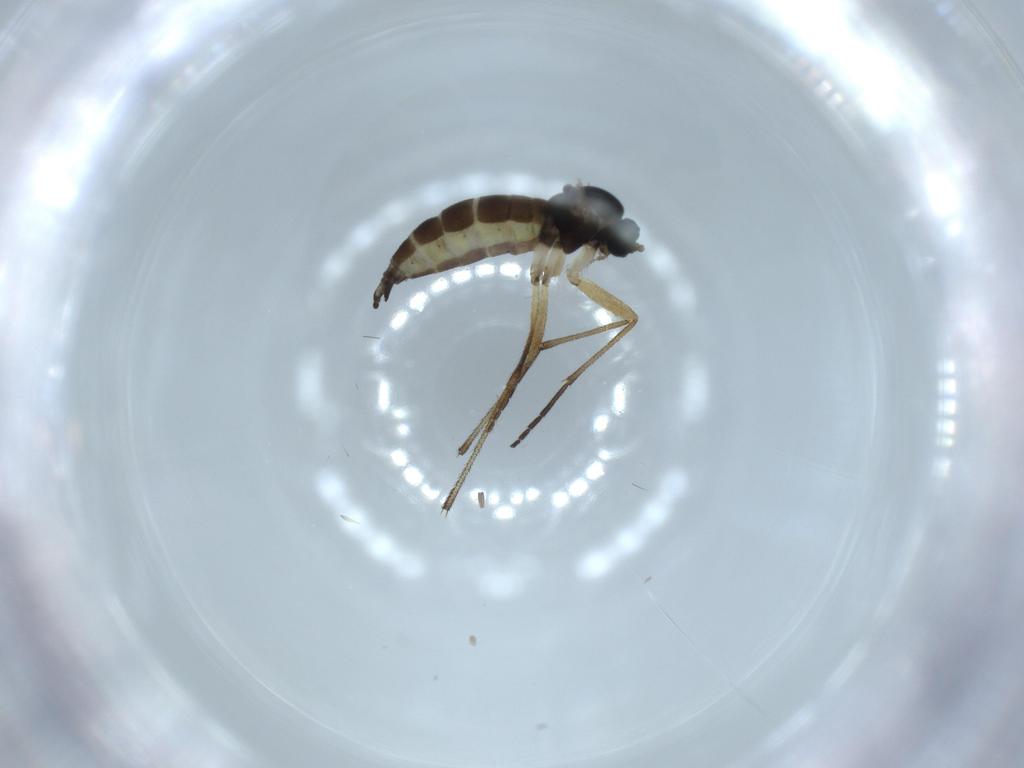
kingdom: Animalia
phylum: Arthropoda
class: Insecta
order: Diptera
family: Sciaridae
